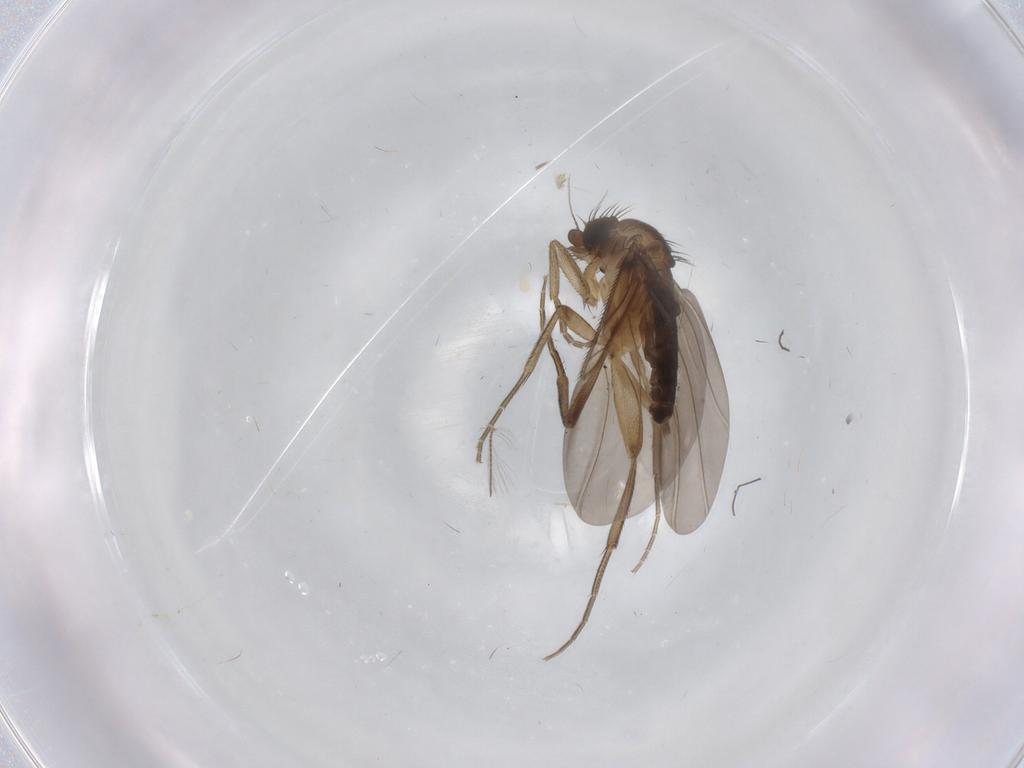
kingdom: Animalia
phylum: Arthropoda
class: Insecta
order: Diptera
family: Phoridae
